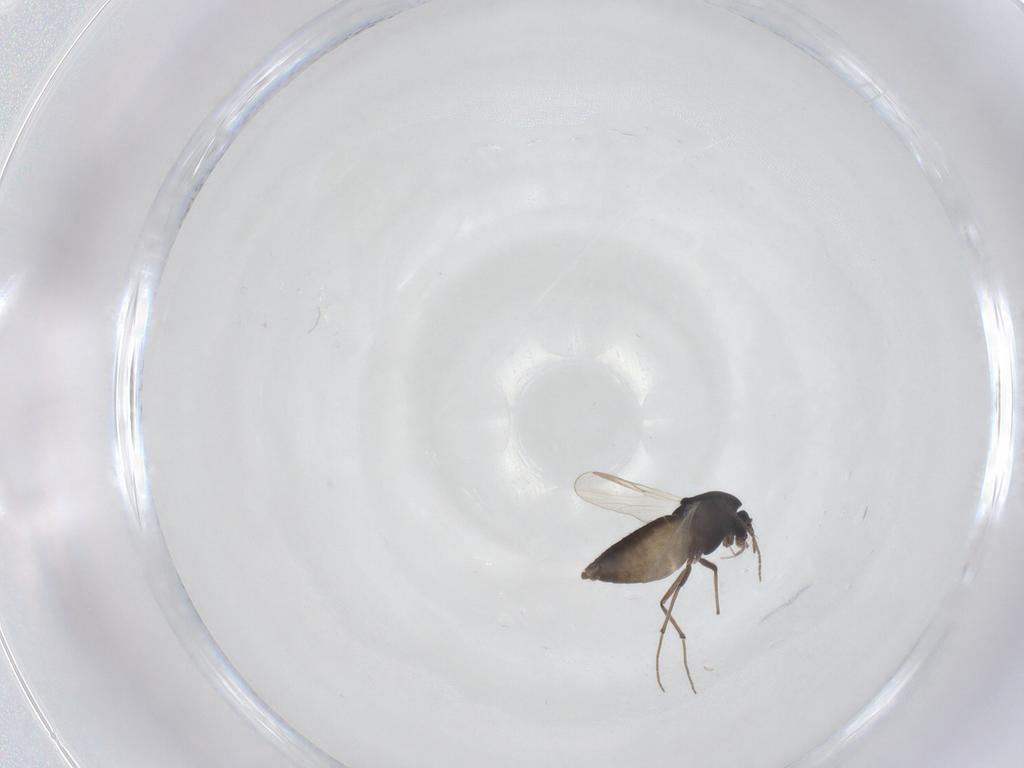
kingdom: Animalia
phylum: Arthropoda
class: Insecta
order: Diptera
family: Chironomidae
